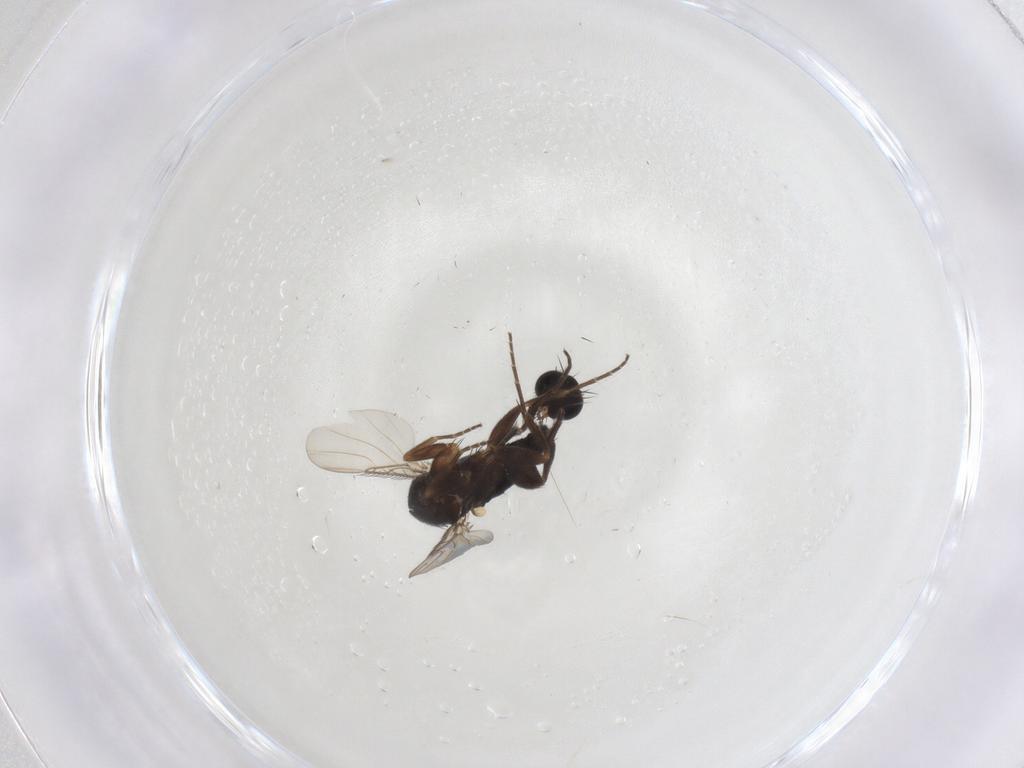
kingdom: Animalia
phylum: Arthropoda
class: Insecta
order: Diptera
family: Phoridae
